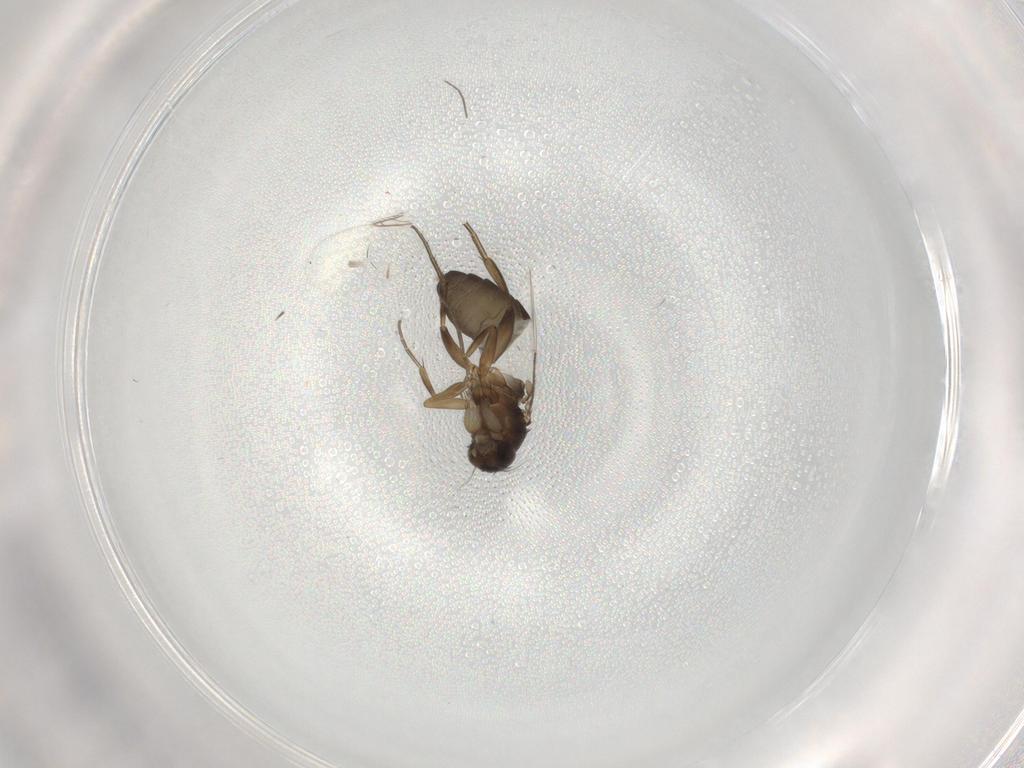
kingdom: Animalia
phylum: Arthropoda
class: Insecta
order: Diptera
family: Phoridae
